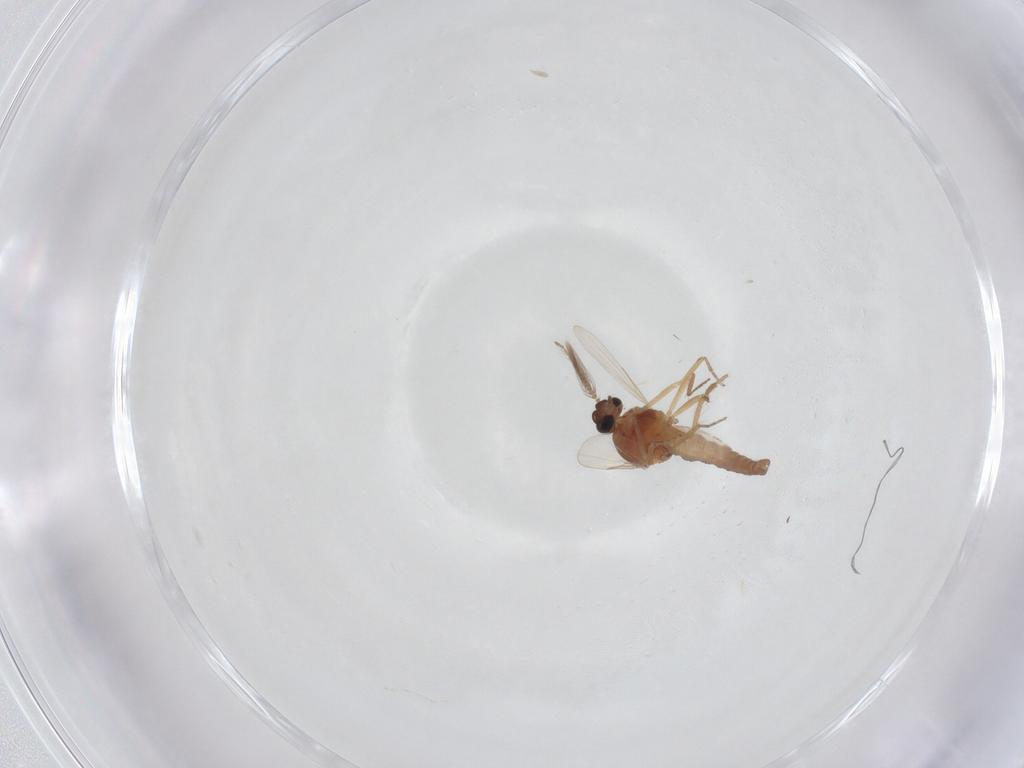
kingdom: Animalia
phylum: Arthropoda
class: Insecta
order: Diptera
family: Ceratopogonidae
